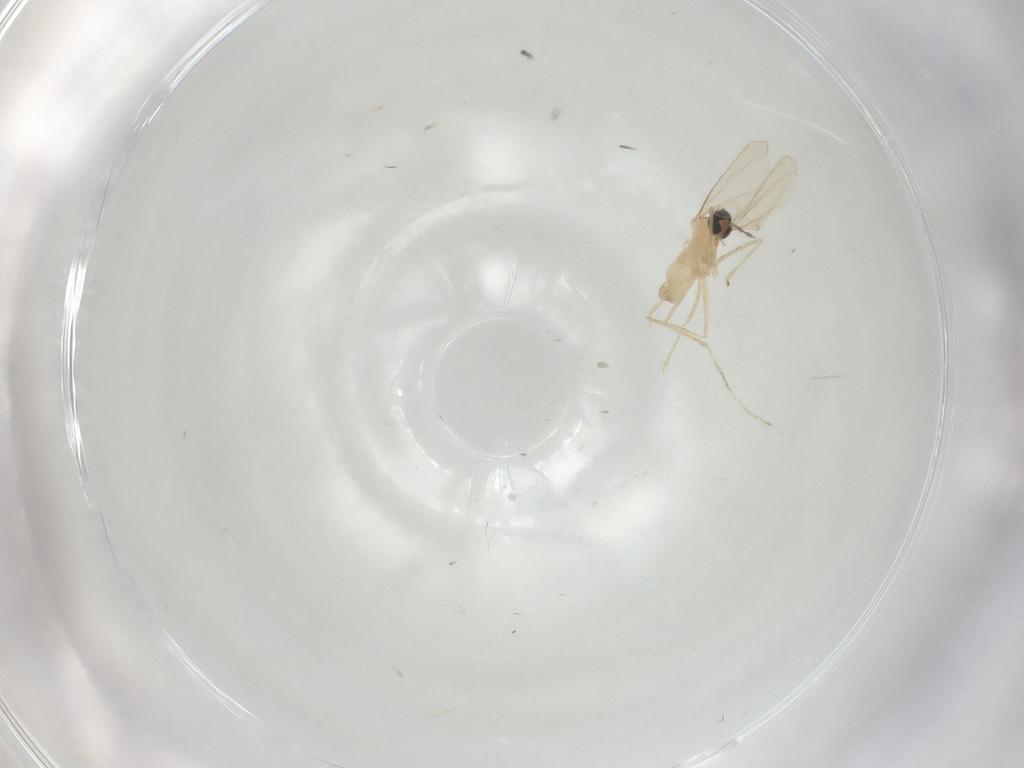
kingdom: Animalia
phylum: Arthropoda
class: Insecta
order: Diptera
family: Cecidomyiidae
